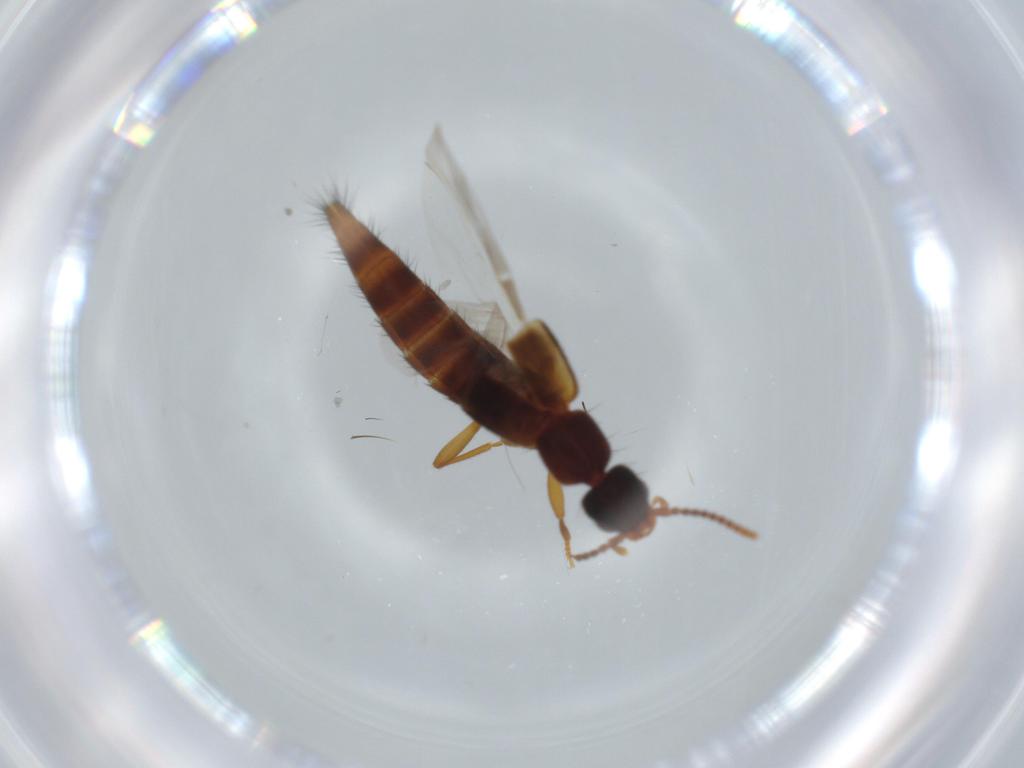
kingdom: Animalia
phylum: Arthropoda
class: Insecta
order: Coleoptera
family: Staphylinidae
